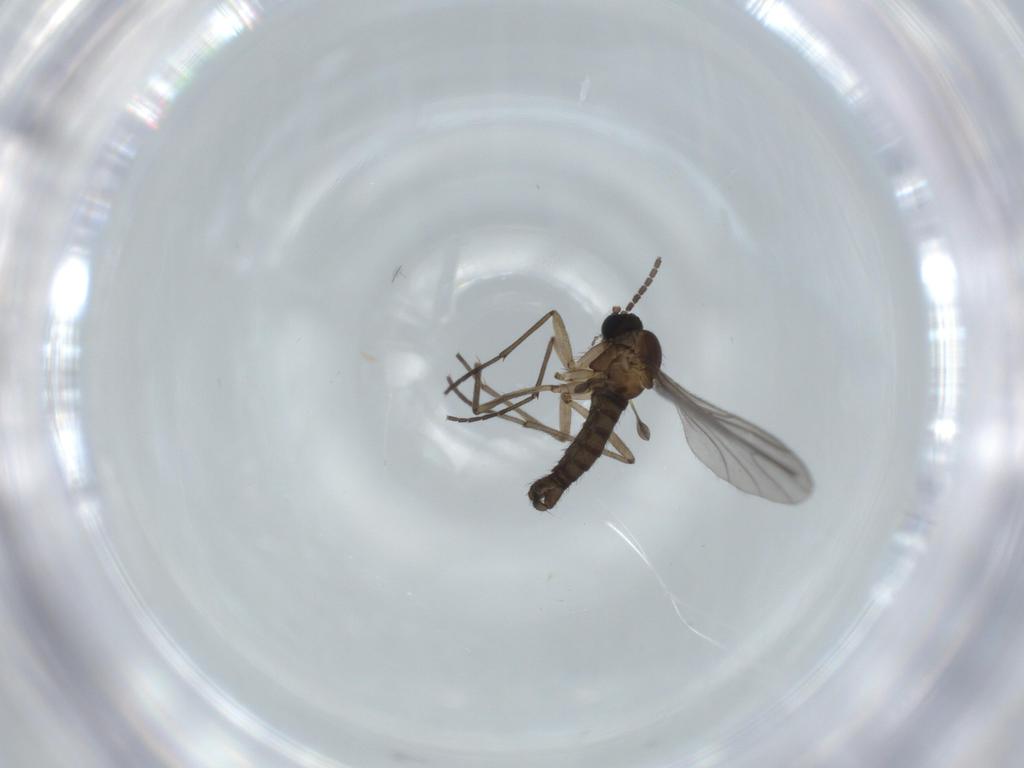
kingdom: Animalia
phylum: Arthropoda
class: Insecta
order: Diptera
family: Sciaridae
